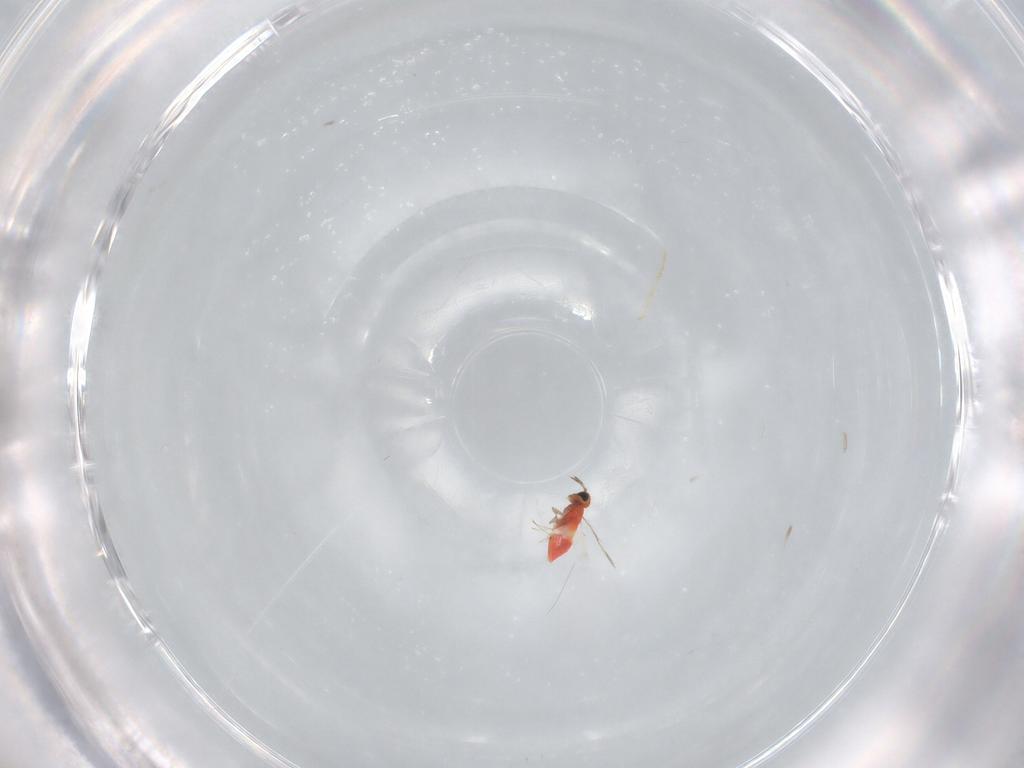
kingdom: Animalia
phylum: Arthropoda
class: Insecta
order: Hymenoptera
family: Trichogrammatidae
